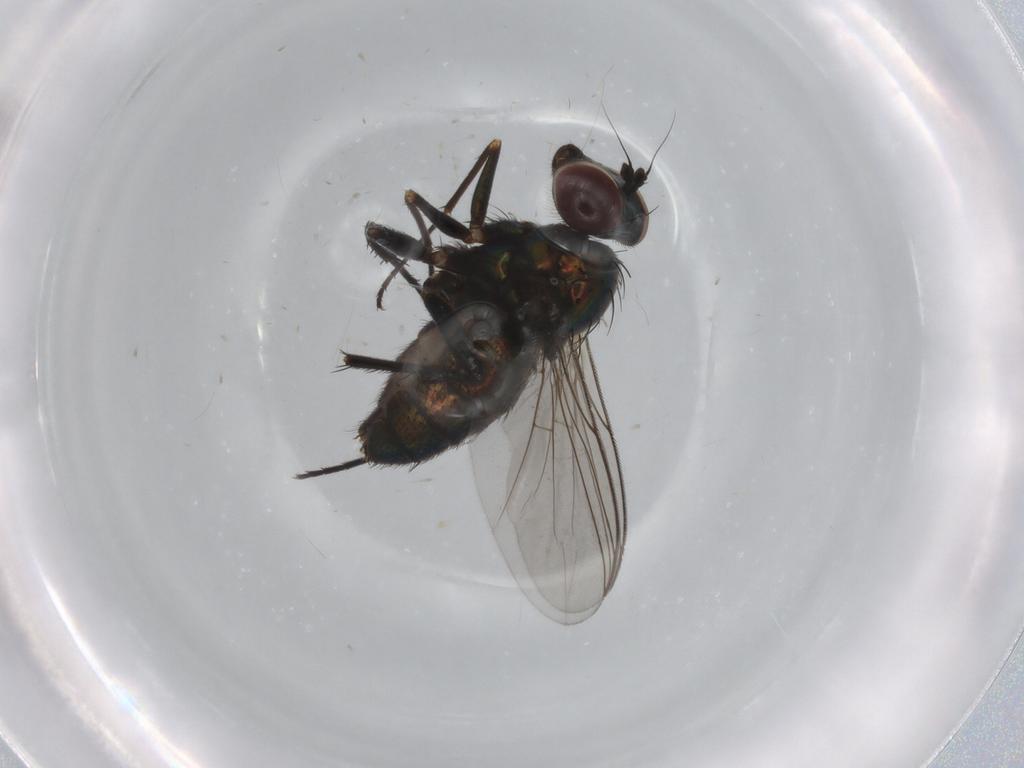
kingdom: Animalia
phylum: Arthropoda
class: Insecta
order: Diptera
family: Dolichopodidae
